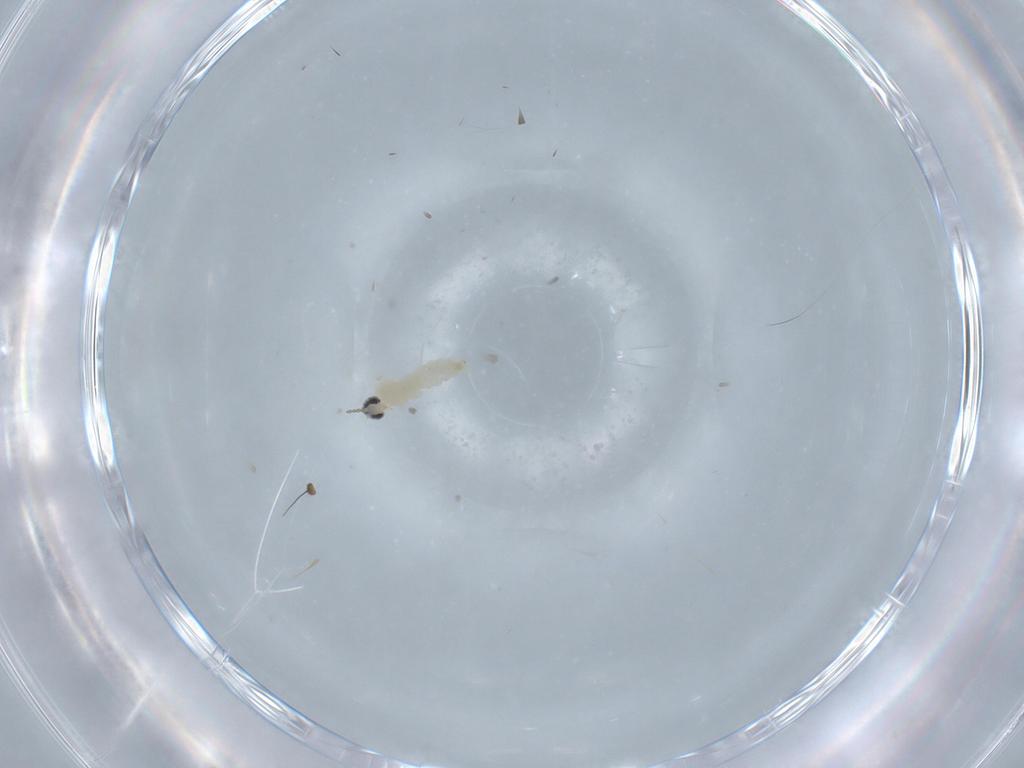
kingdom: Animalia
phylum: Arthropoda
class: Insecta
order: Diptera
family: Dolichopodidae
